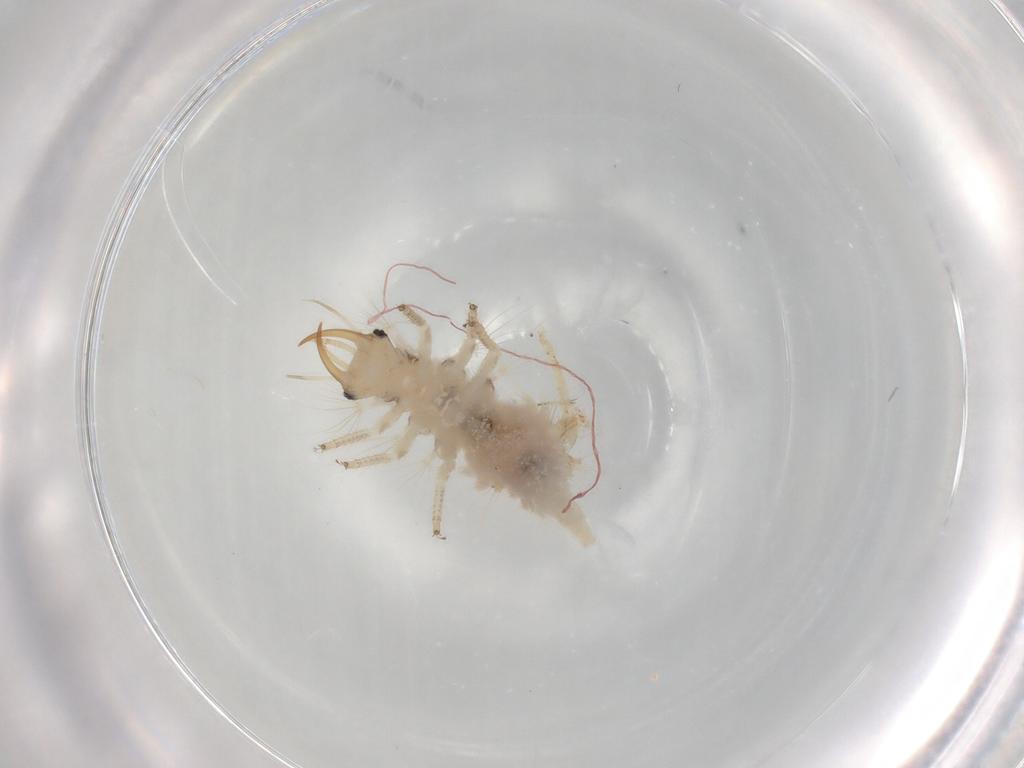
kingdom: Animalia
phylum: Arthropoda
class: Insecta
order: Neuroptera
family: Chrysopidae
